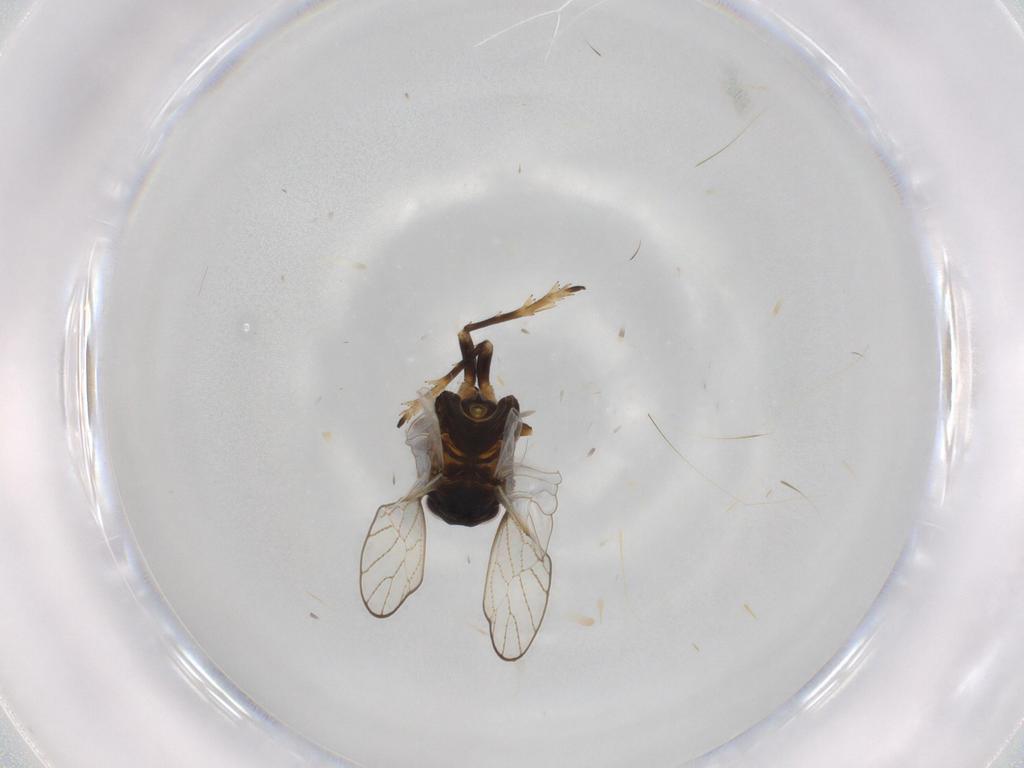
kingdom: Animalia
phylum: Arthropoda
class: Insecta
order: Hemiptera
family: Delphacidae
